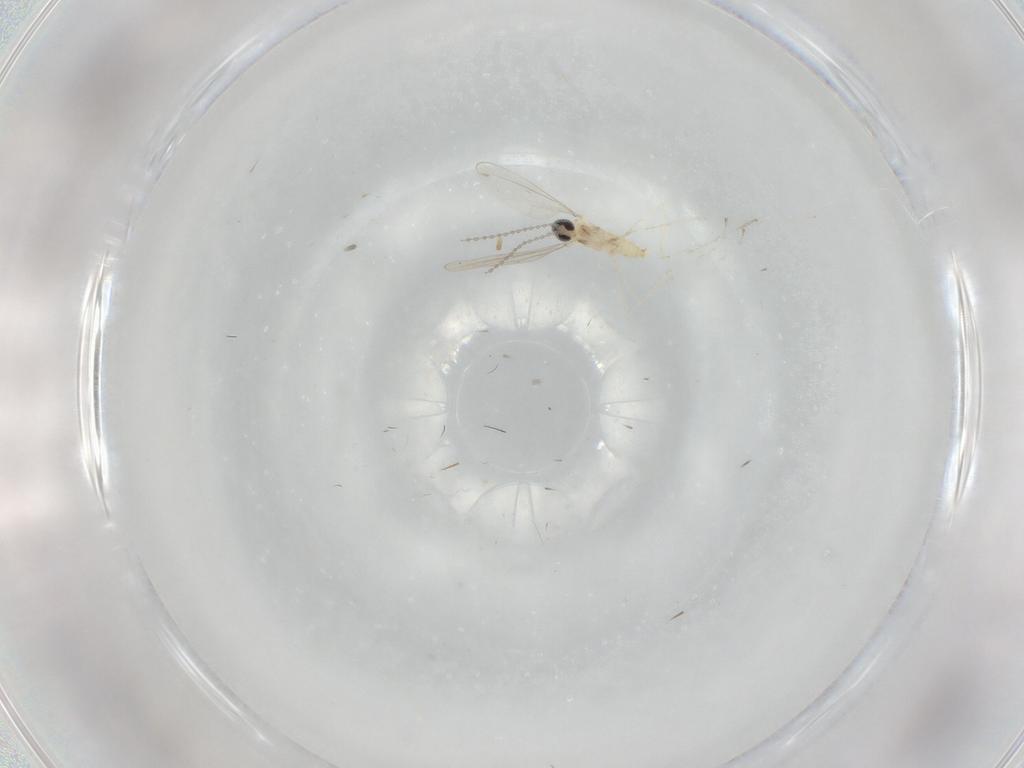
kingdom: Animalia
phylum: Arthropoda
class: Insecta
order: Diptera
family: Cecidomyiidae
